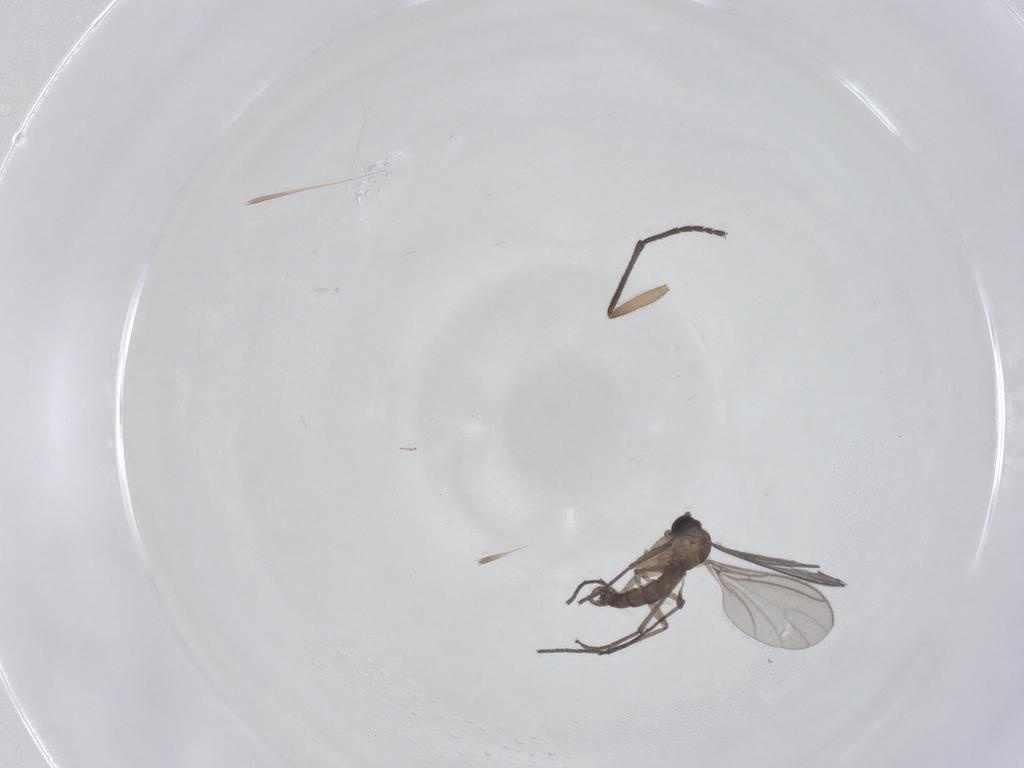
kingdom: Animalia
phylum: Arthropoda
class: Insecta
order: Diptera
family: Sciaridae
